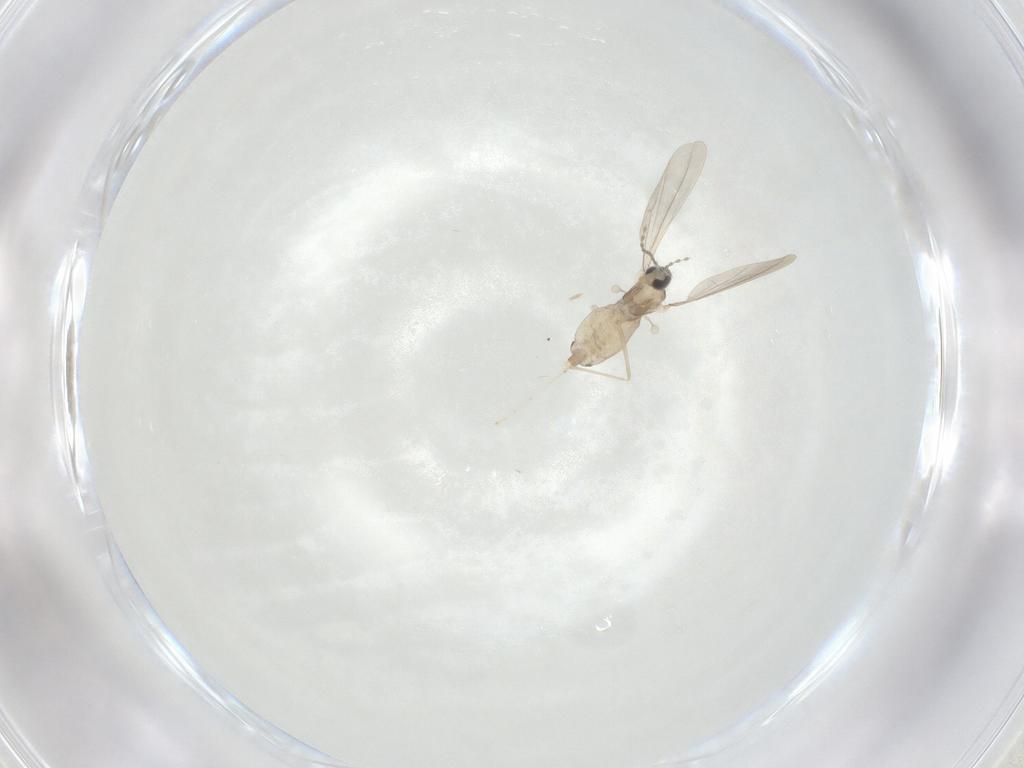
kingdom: Animalia
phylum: Arthropoda
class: Insecta
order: Diptera
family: Cecidomyiidae
